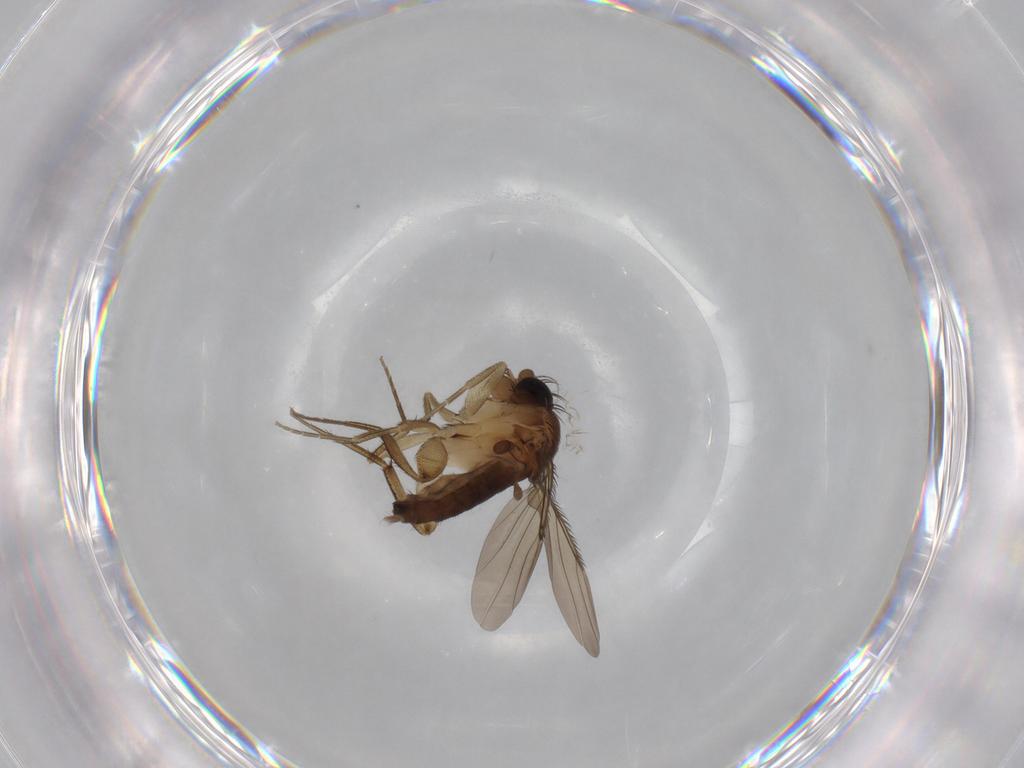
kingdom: Animalia
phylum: Arthropoda
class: Insecta
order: Diptera
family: Phoridae
